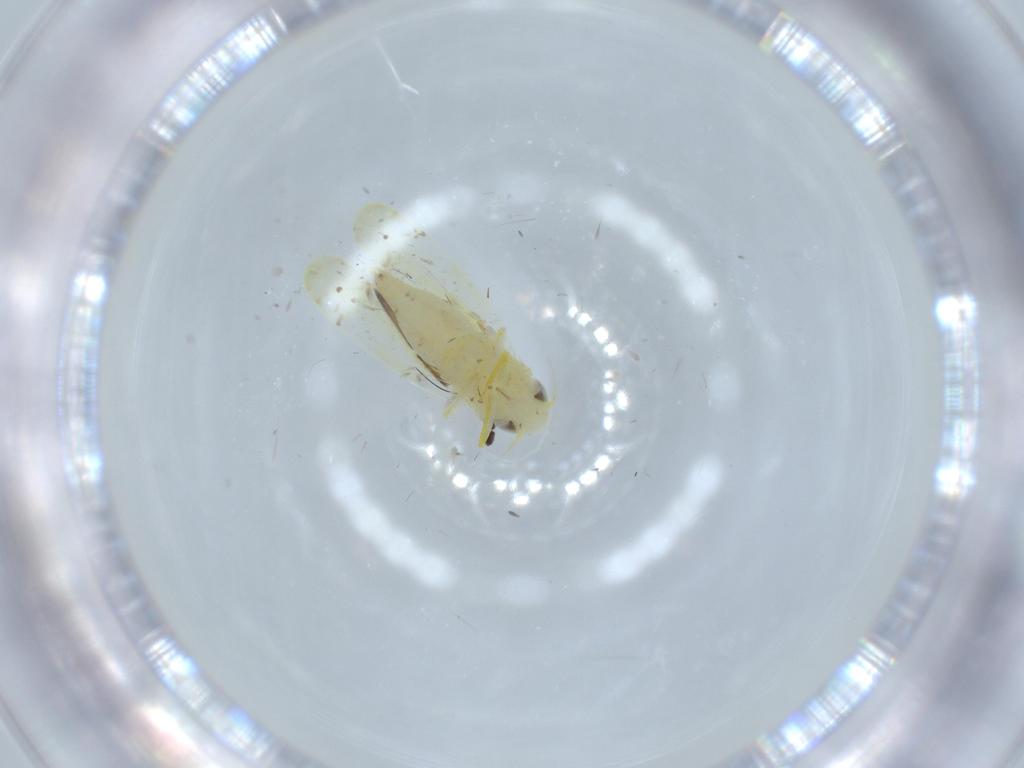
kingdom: Animalia
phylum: Arthropoda
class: Insecta
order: Hemiptera
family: Cicadellidae
